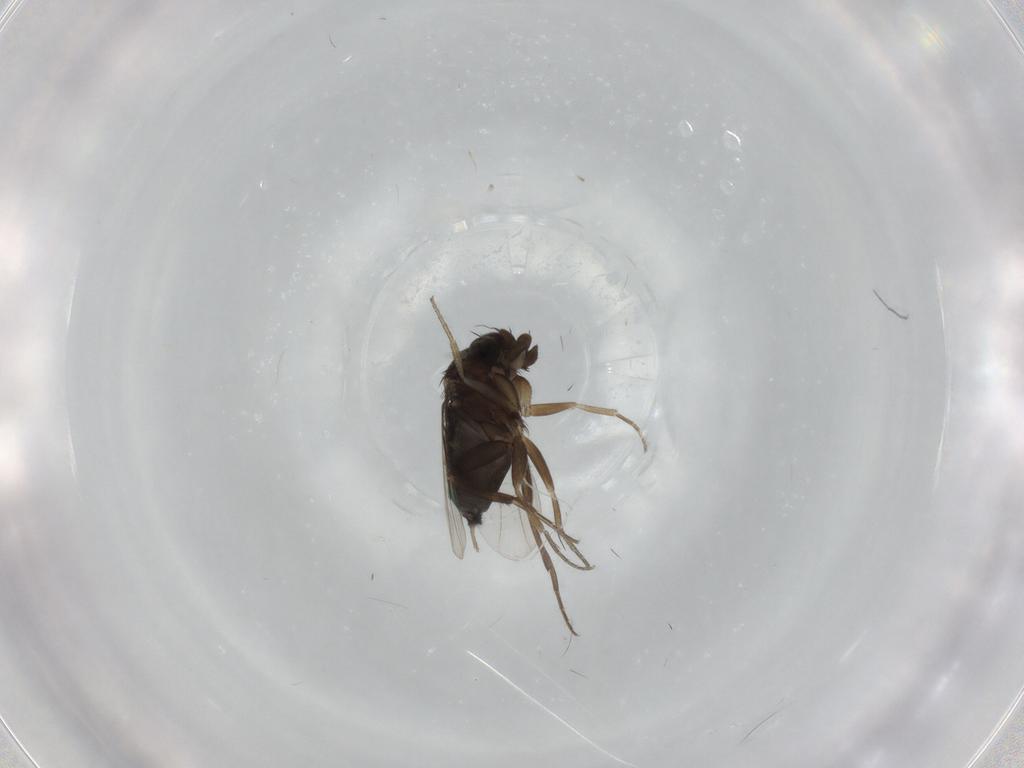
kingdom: Animalia
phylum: Arthropoda
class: Insecta
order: Diptera
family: Phoridae
